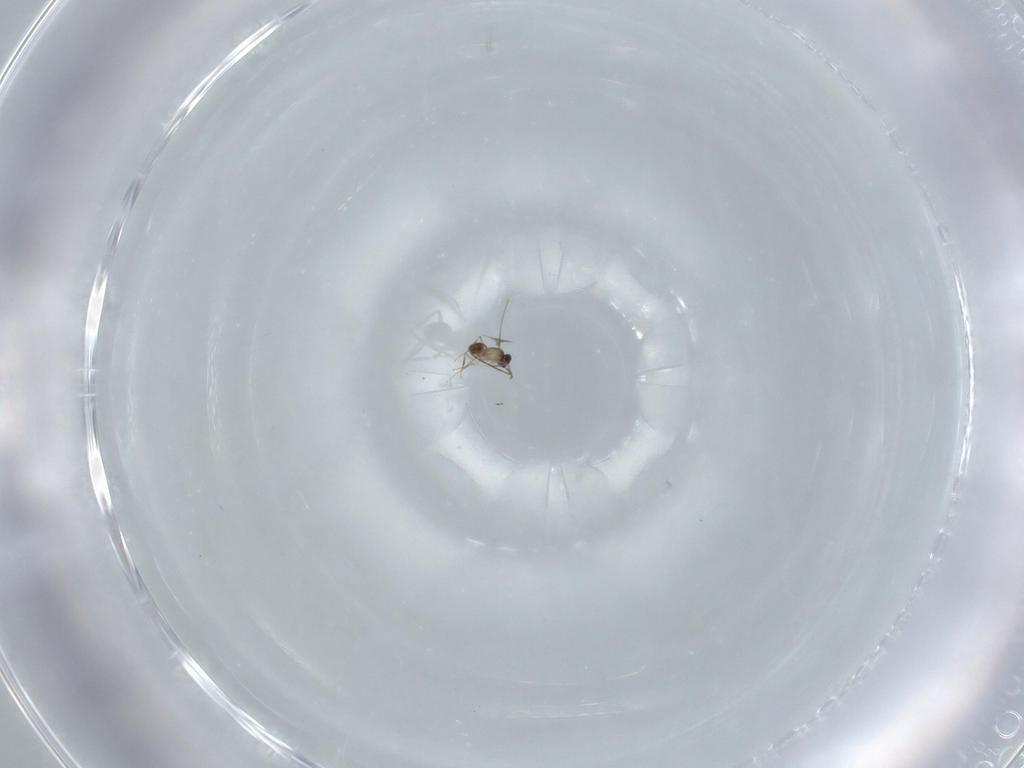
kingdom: Animalia
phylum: Arthropoda
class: Insecta
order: Hymenoptera
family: Mymaridae
